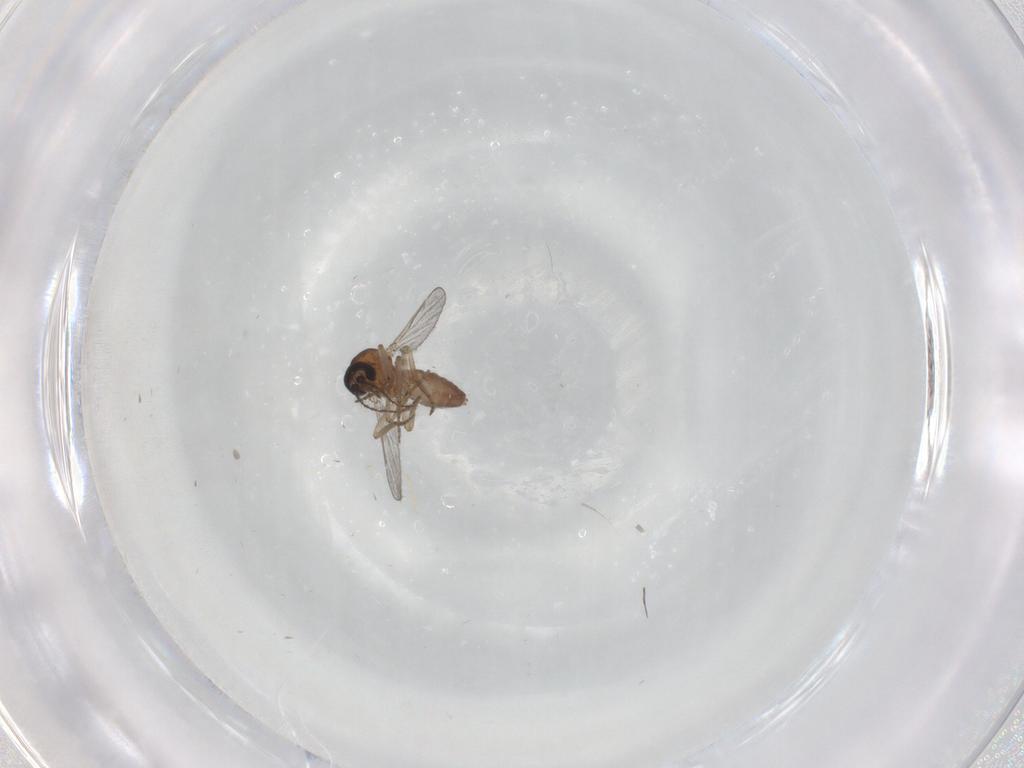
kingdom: Animalia
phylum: Arthropoda
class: Insecta
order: Diptera
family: Ceratopogonidae
